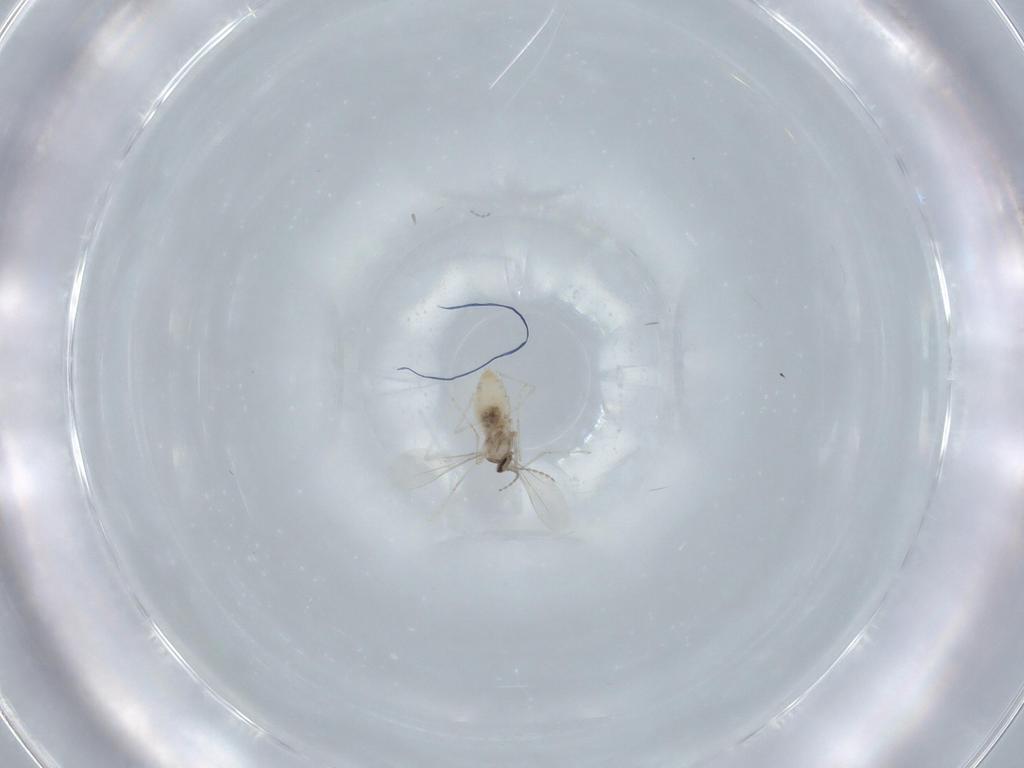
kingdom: Animalia
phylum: Arthropoda
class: Insecta
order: Diptera
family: Cecidomyiidae
